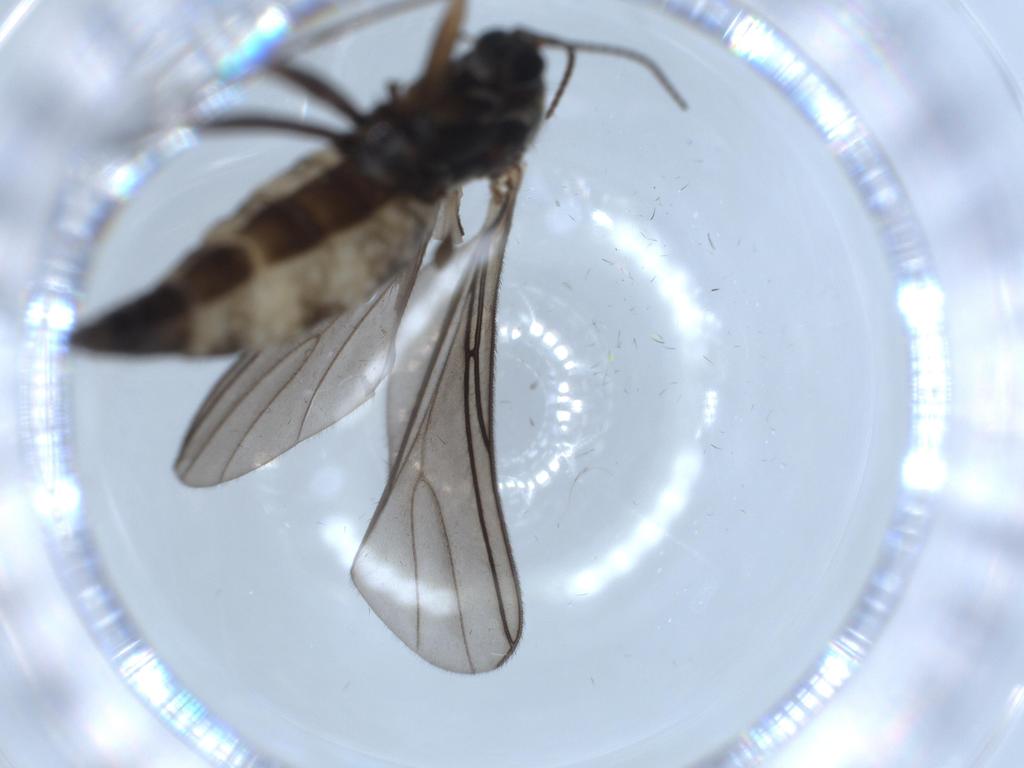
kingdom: Animalia
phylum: Arthropoda
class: Insecta
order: Diptera
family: Sciaridae
